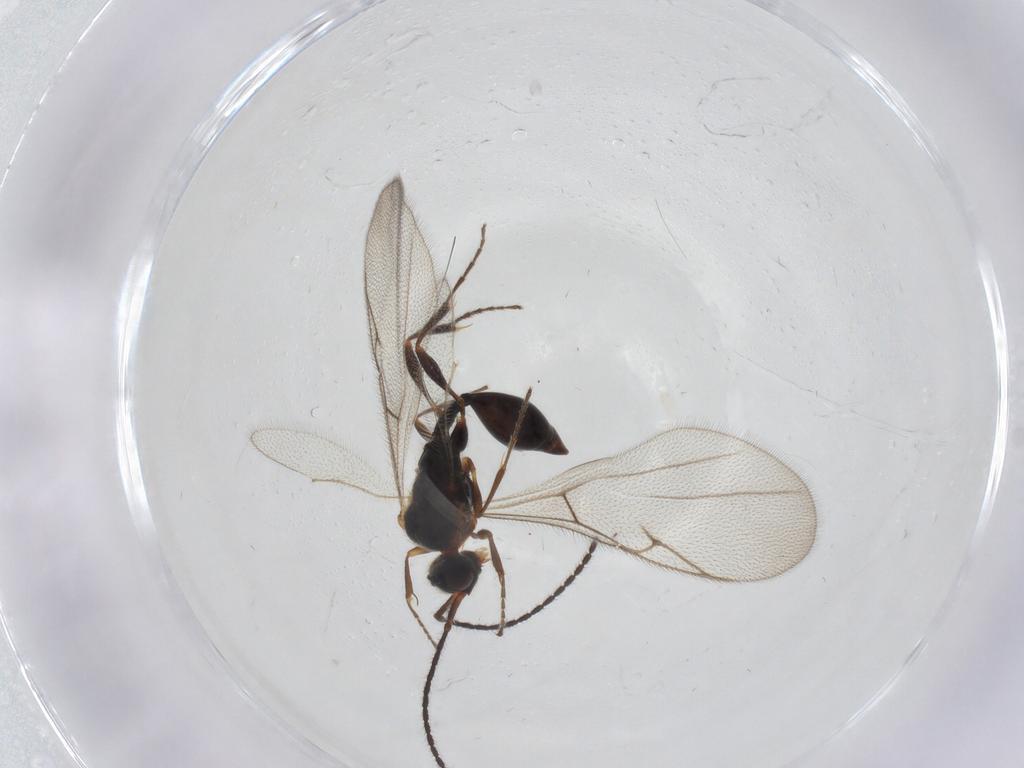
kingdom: Animalia
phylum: Arthropoda
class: Insecta
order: Hymenoptera
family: Diapriidae
